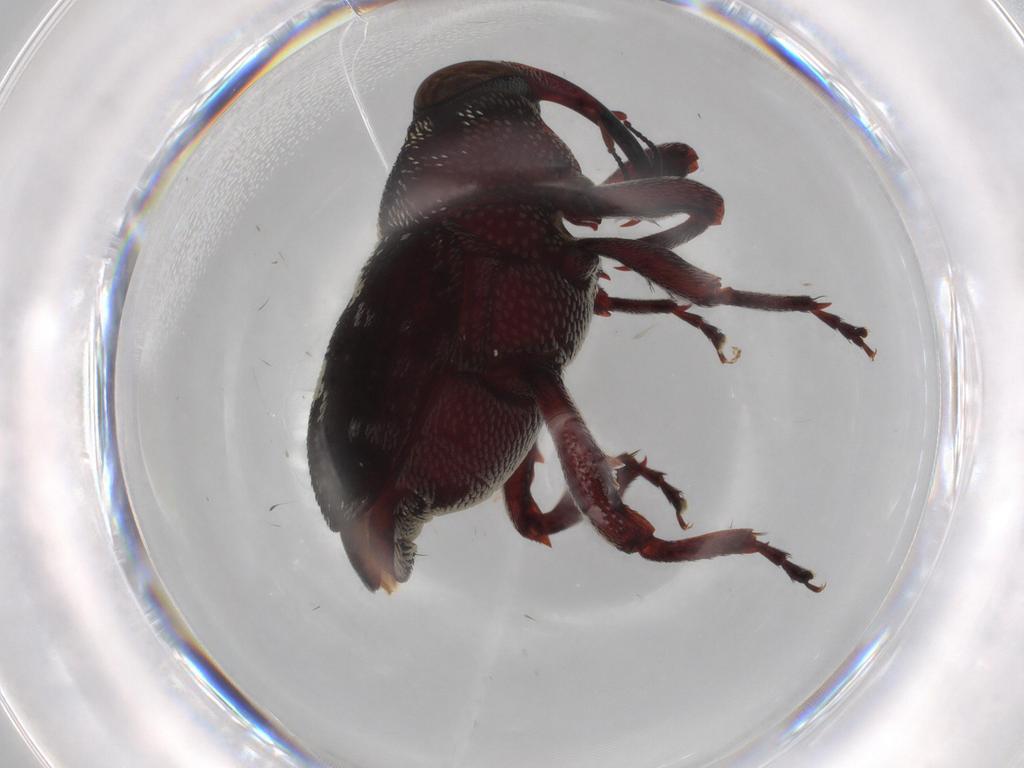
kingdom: Animalia
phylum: Arthropoda
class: Insecta
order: Coleoptera
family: Curculionidae
